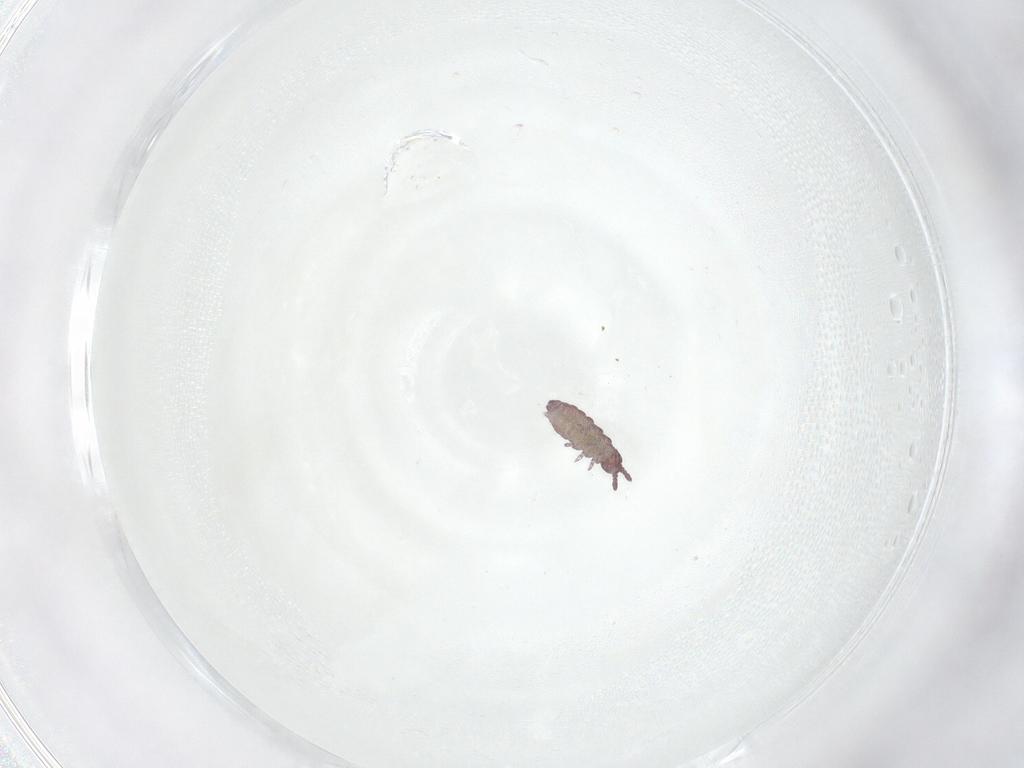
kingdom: Animalia
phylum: Arthropoda
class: Collembola
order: Poduromorpha
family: Hypogastruridae
